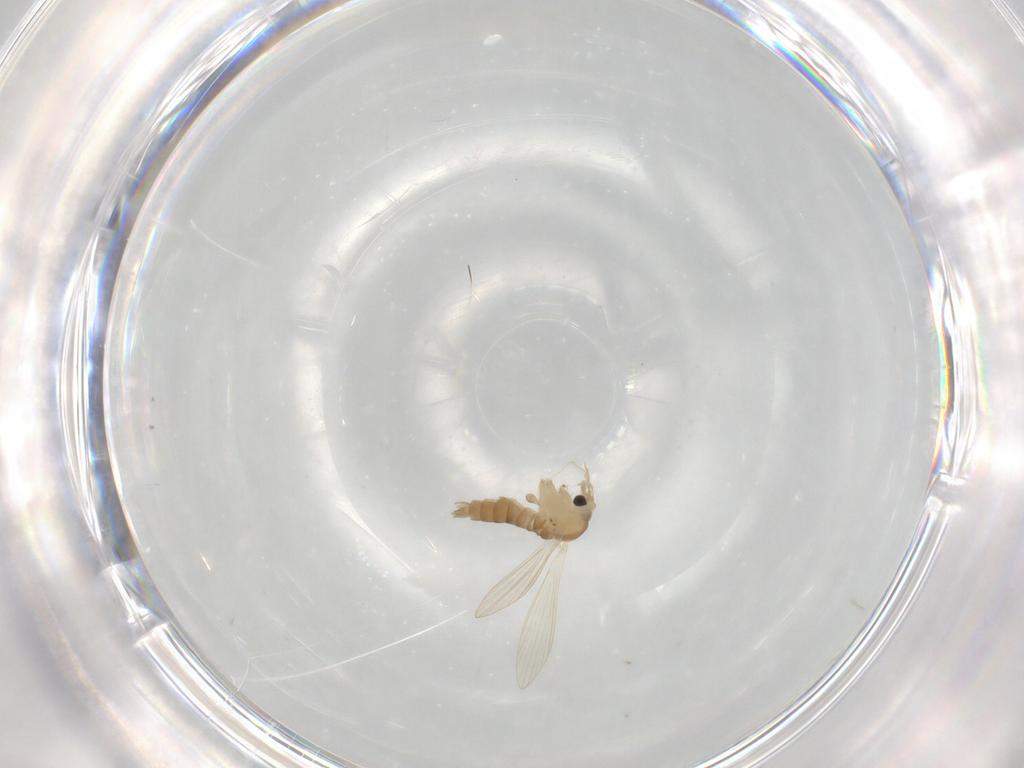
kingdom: Animalia
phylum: Arthropoda
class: Insecta
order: Diptera
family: Psychodidae
